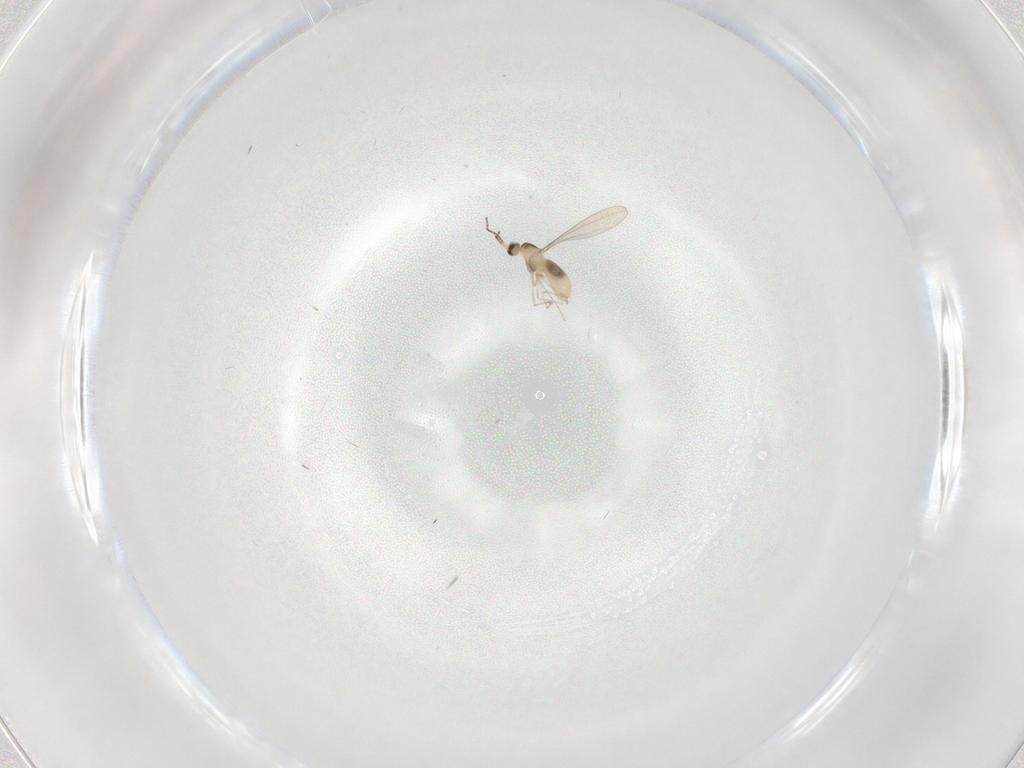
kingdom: Animalia
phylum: Arthropoda
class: Insecta
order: Diptera
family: Cecidomyiidae
